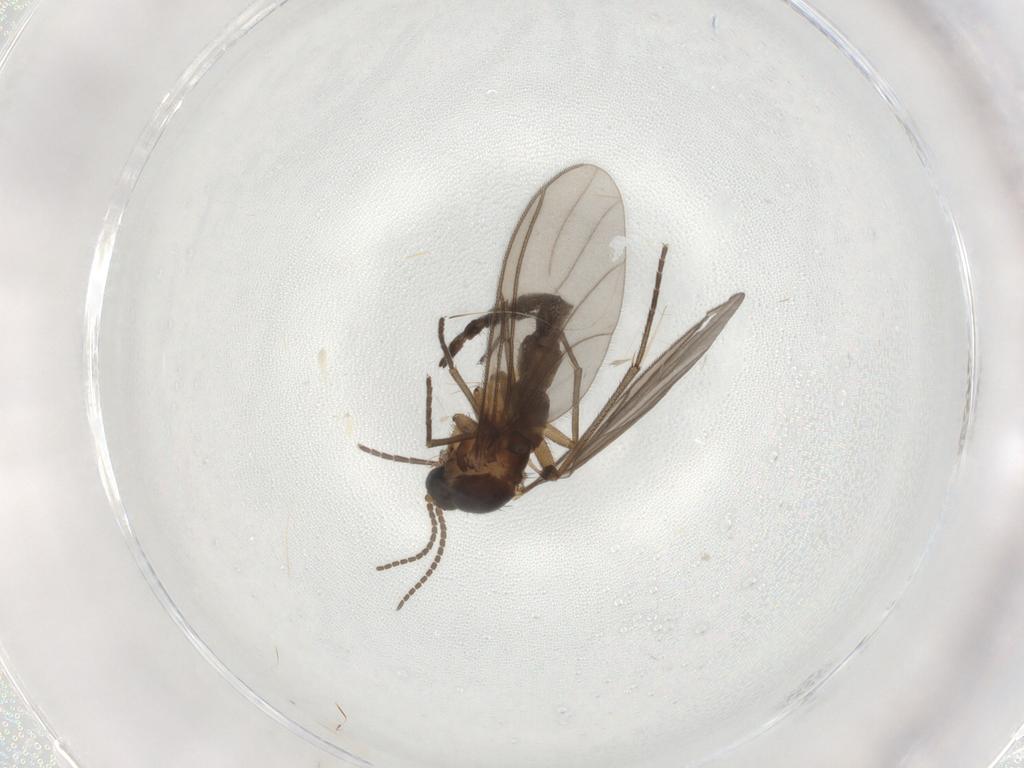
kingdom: Animalia
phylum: Arthropoda
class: Insecta
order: Diptera
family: Sciaridae
